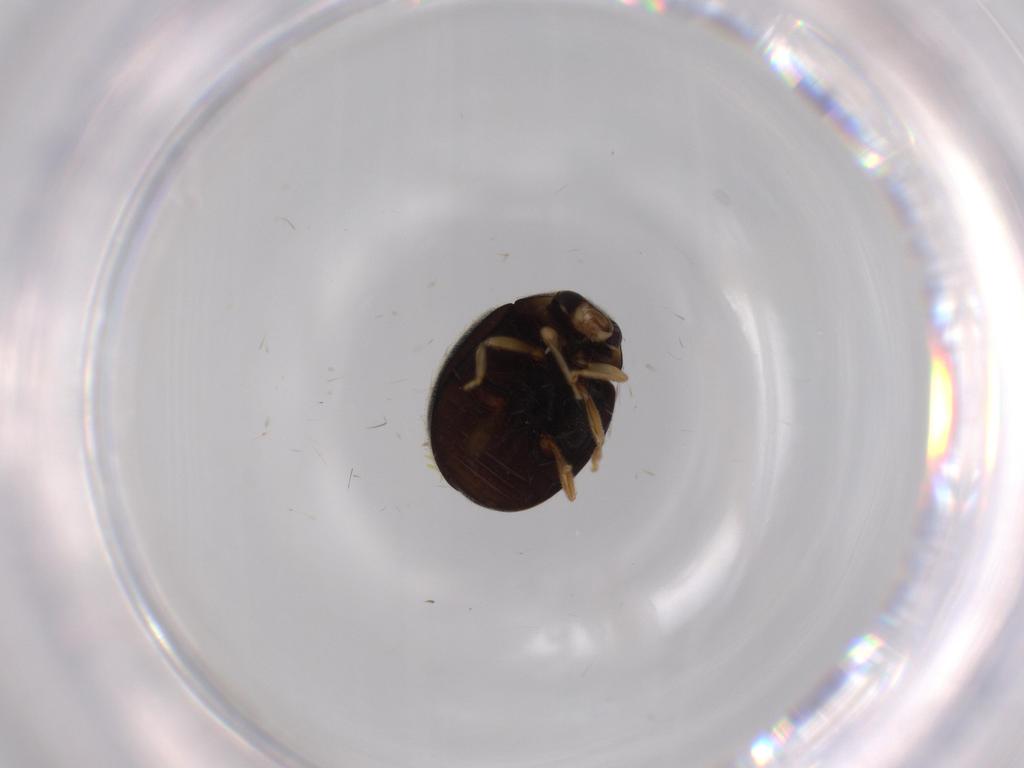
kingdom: Animalia
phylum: Arthropoda
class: Insecta
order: Coleoptera
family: Coccinellidae
